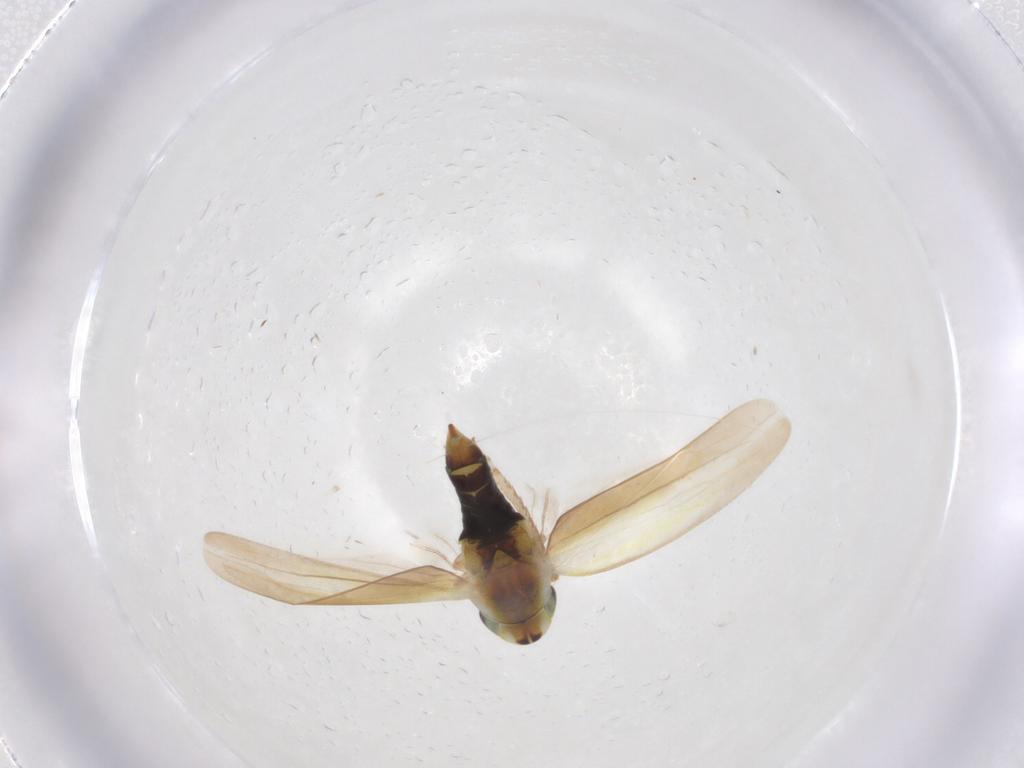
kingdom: Animalia
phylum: Arthropoda
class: Insecta
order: Hemiptera
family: Cicadellidae
